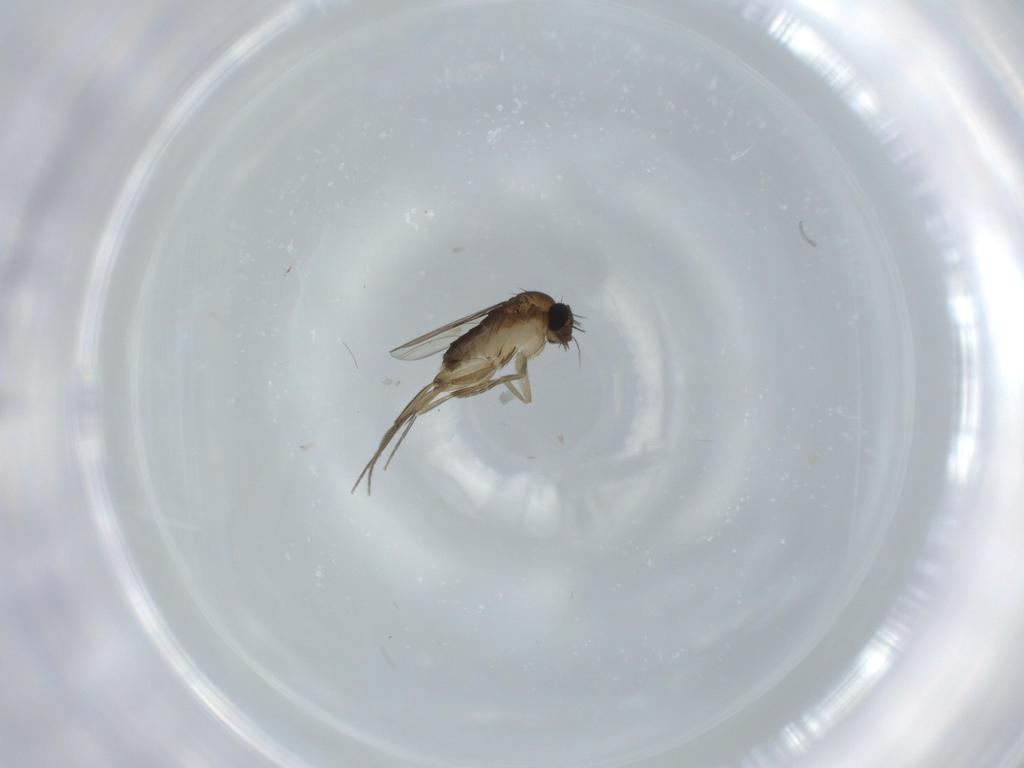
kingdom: Animalia
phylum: Arthropoda
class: Insecta
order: Diptera
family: Phoridae
